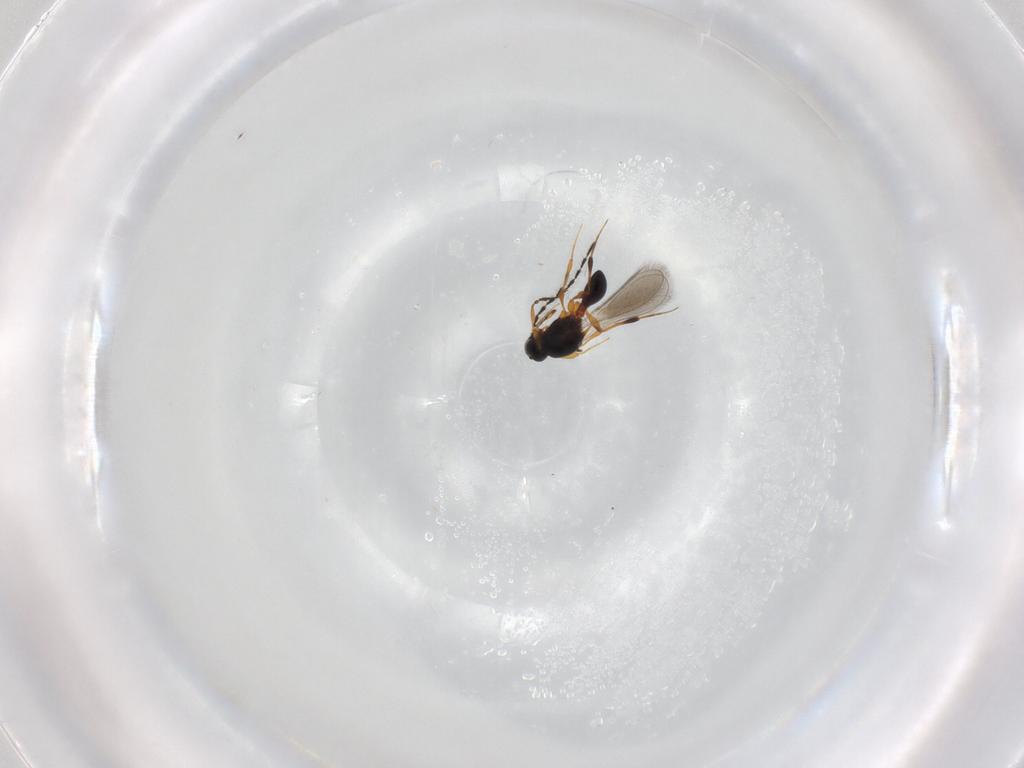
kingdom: Animalia
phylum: Arthropoda
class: Insecta
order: Hymenoptera
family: Platygastridae
